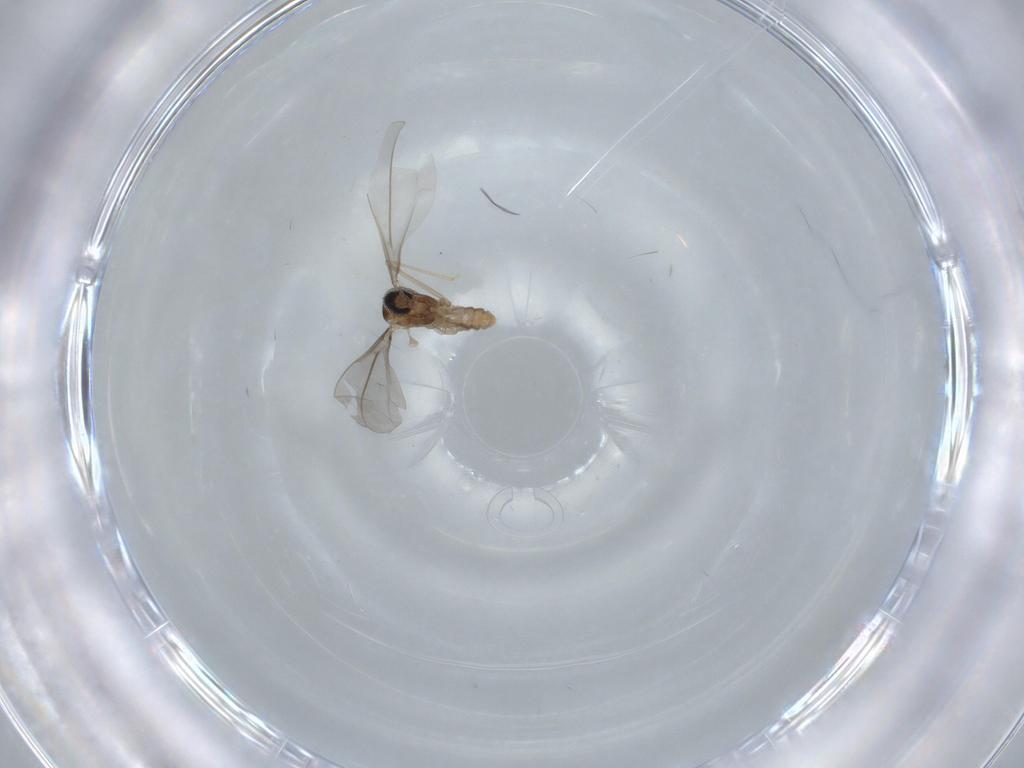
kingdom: Animalia
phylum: Arthropoda
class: Insecta
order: Diptera
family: Cecidomyiidae
